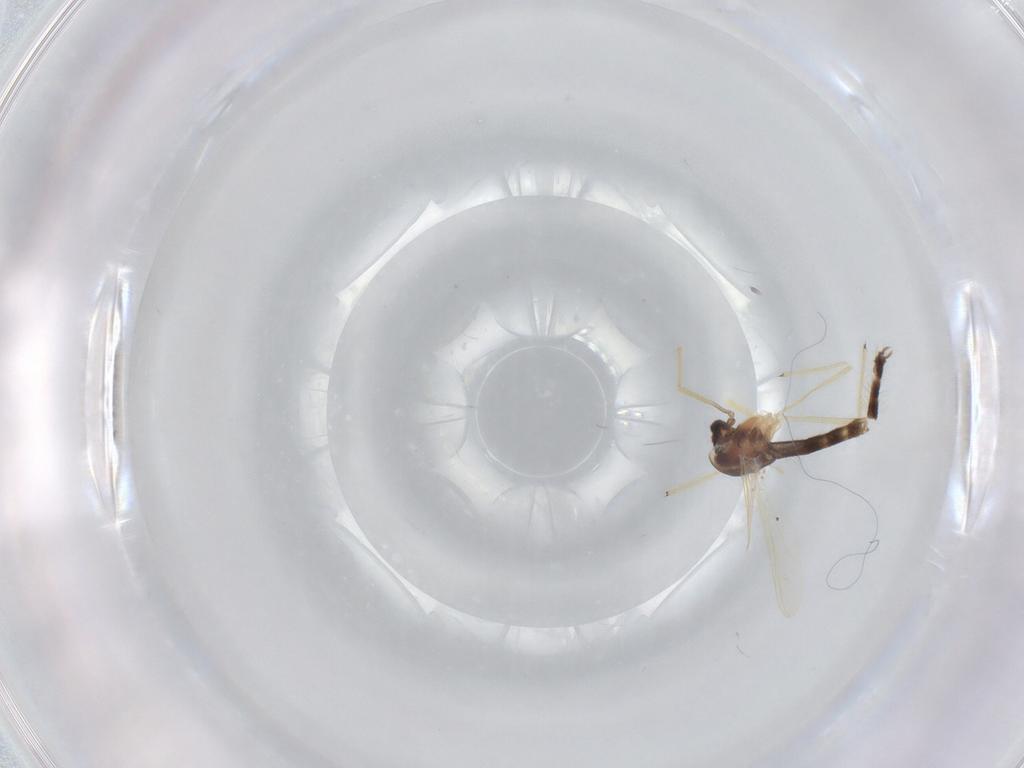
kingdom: Animalia
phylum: Arthropoda
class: Insecta
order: Diptera
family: Chironomidae
